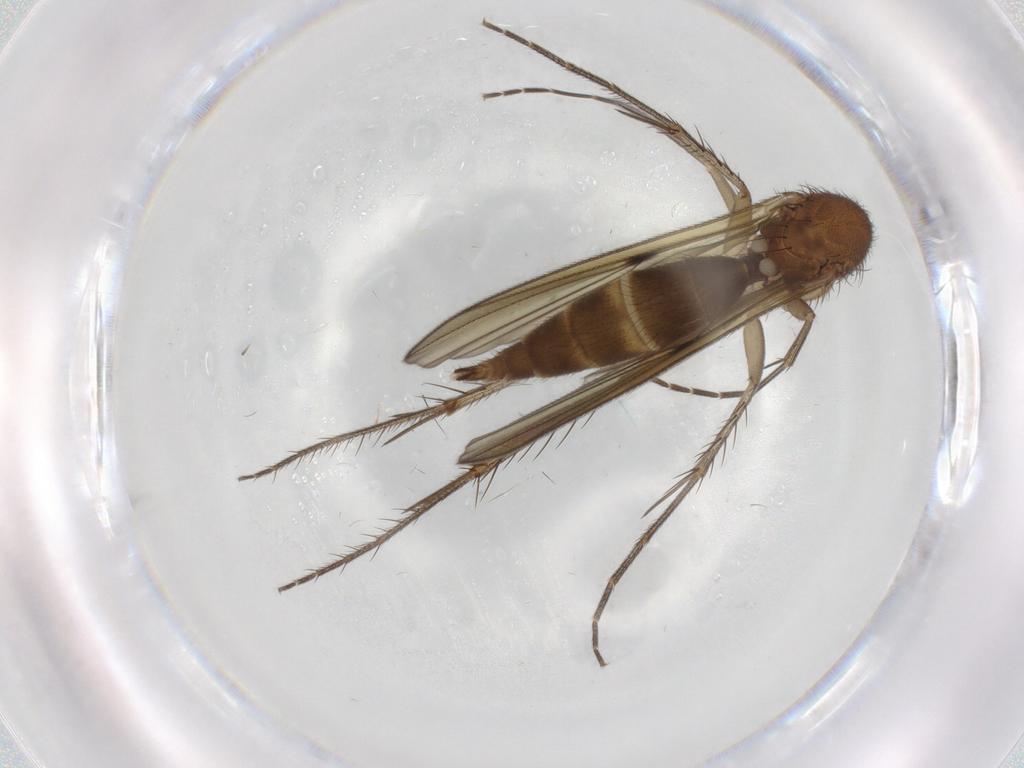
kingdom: Animalia
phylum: Arthropoda
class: Insecta
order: Diptera
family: Mycetophilidae
